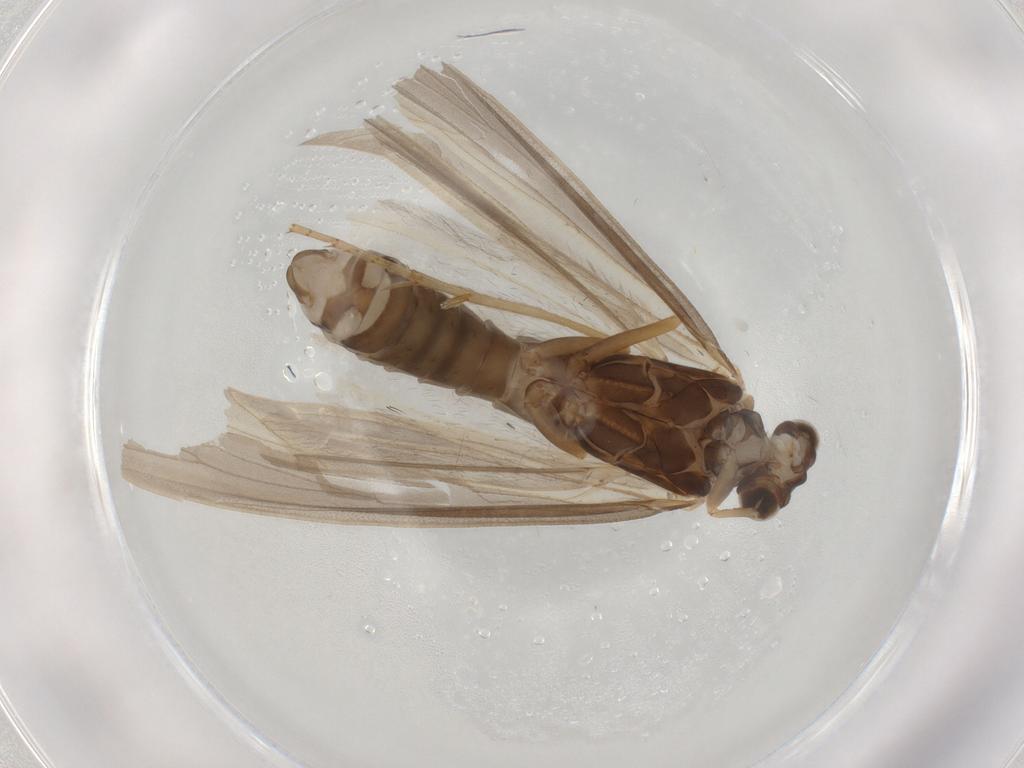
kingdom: Animalia
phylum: Arthropoda
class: Insecta
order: Trichoptera
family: Lepidostomatidae
